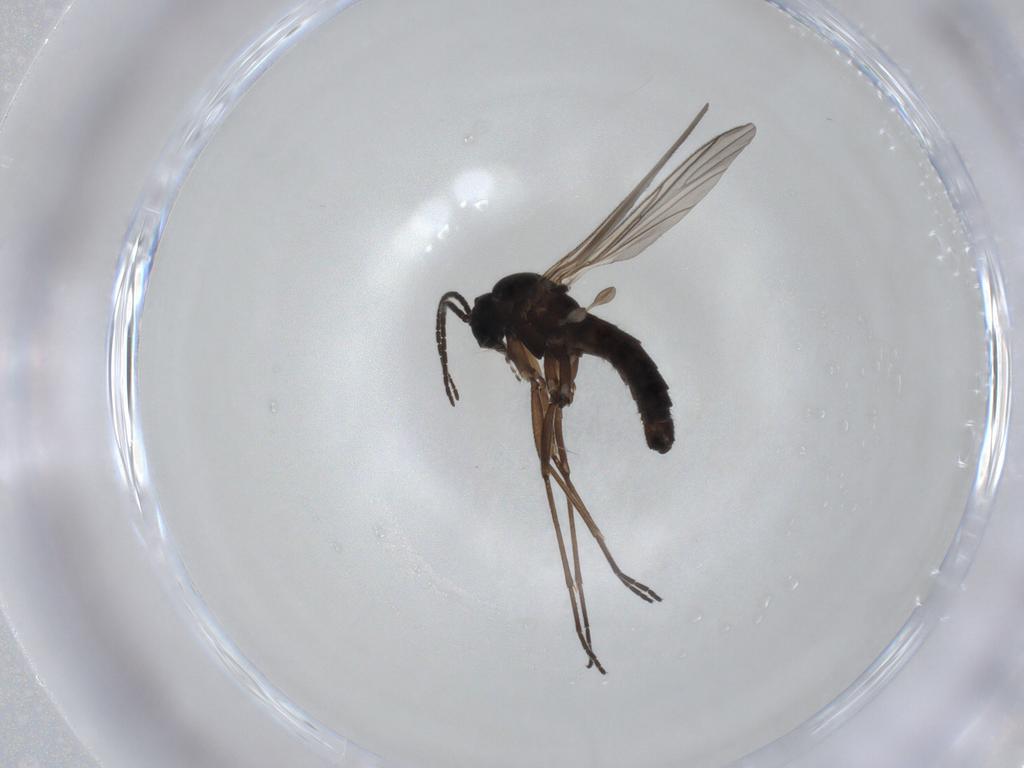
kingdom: Animalia
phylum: Arthropoda
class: Insecta
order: Diptera
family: Sciaridae
